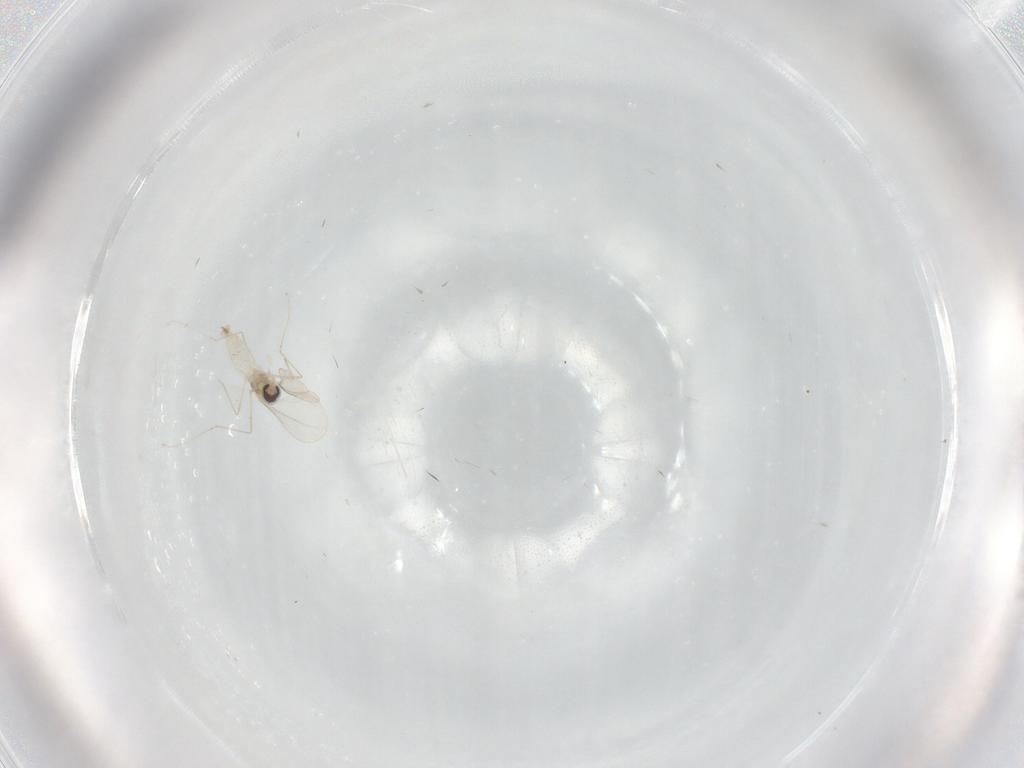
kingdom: Animalia
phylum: Arthropoda
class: Insecta
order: Diptera
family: Cecidomyiidae
